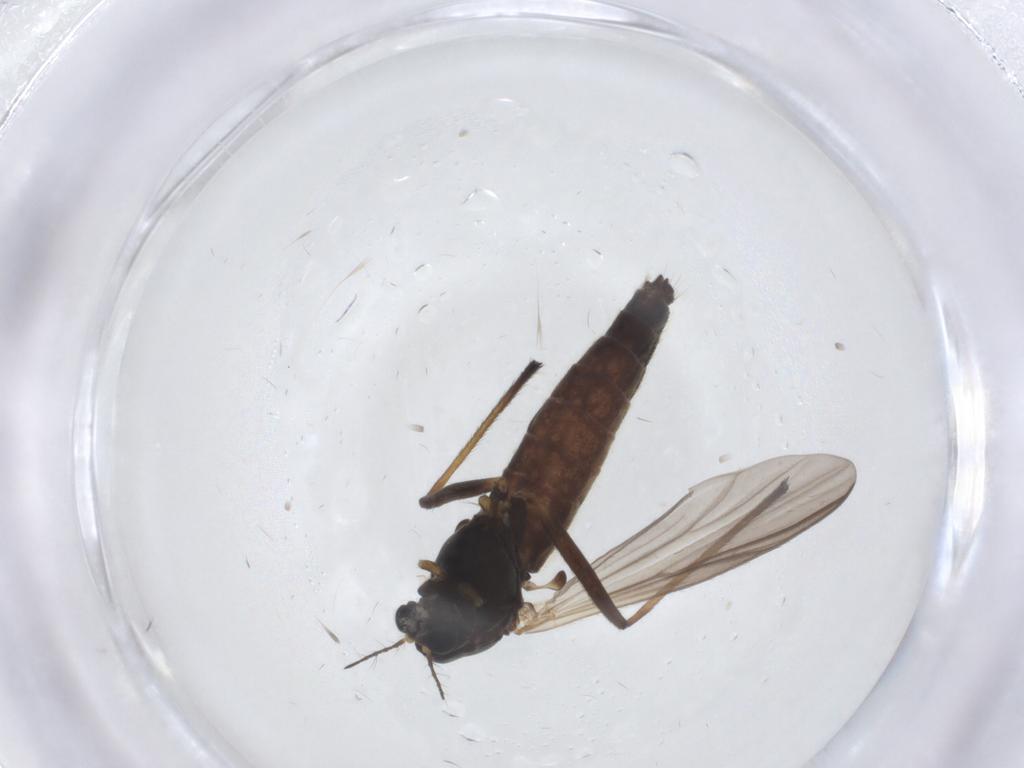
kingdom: Animalia
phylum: Arthropoda
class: Insecta
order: Diptera
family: Chironomidae
